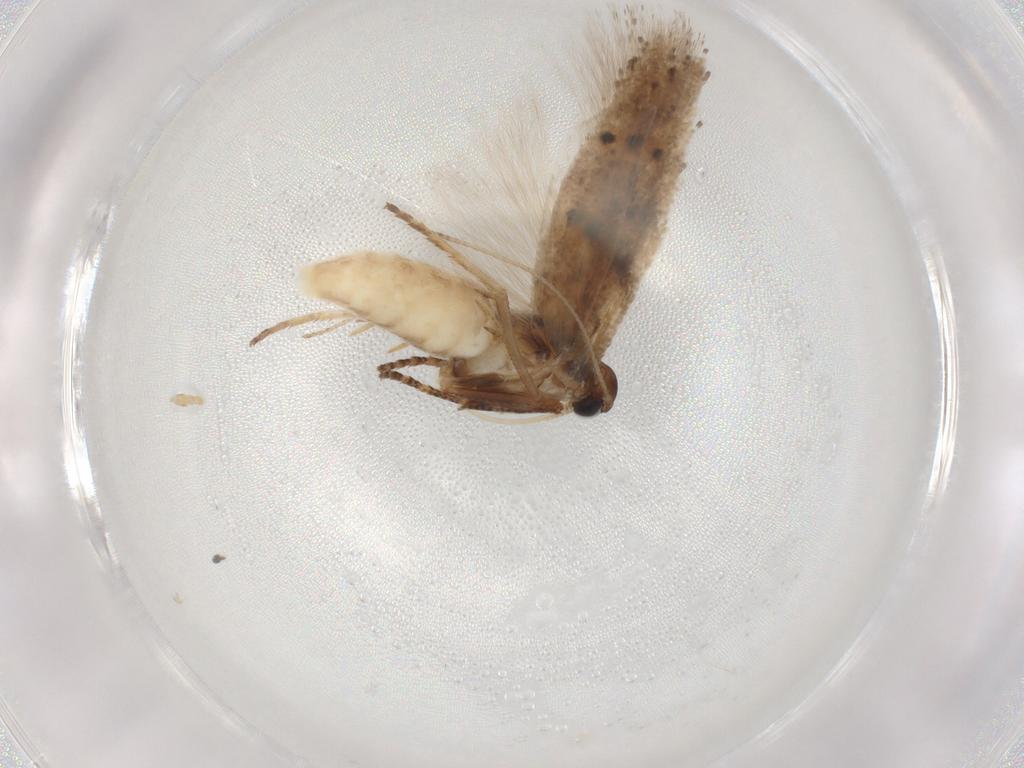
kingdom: Animalia
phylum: Arthropoda
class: Insecta
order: Lepidoptera
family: Gelechiidae
